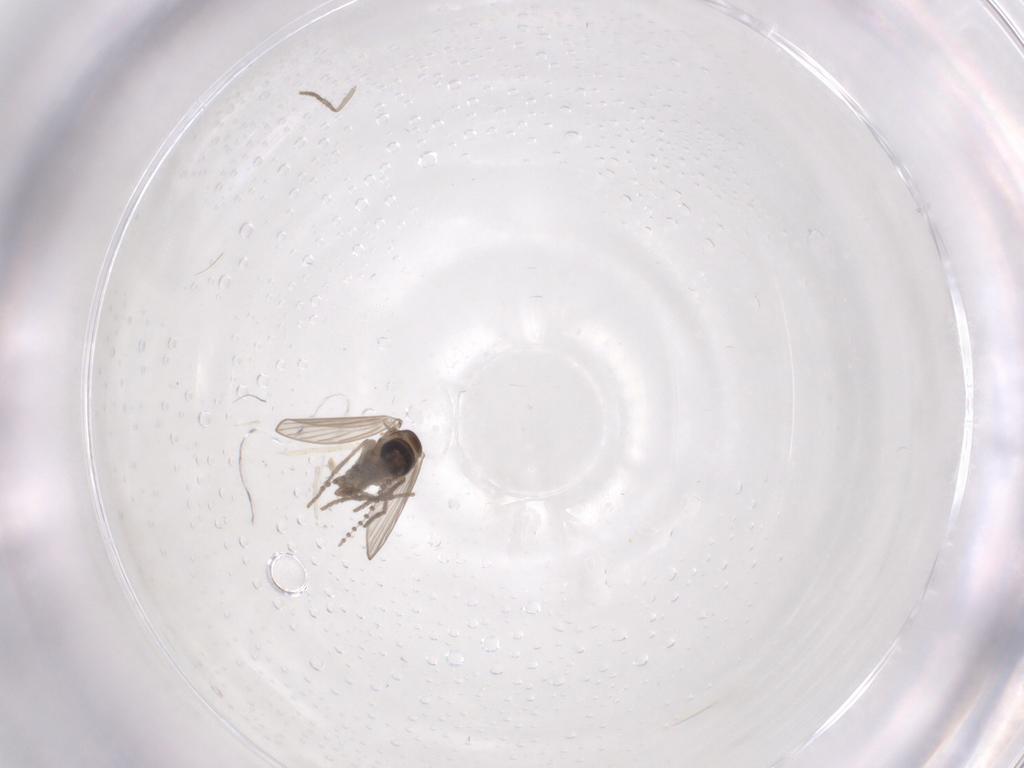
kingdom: Animalia
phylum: Arthropoda
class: Insecta
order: Diptera
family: Psychodidae
